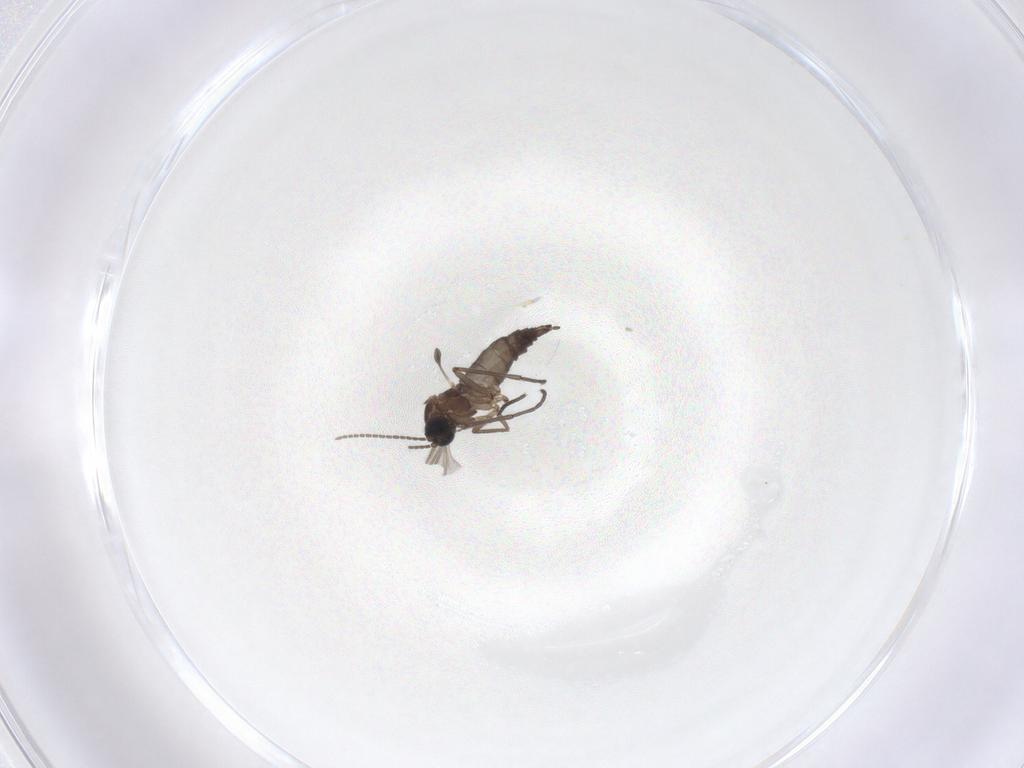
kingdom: Animalia
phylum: Arthropoda
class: Insecta
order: Diptera
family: Sciaridae
